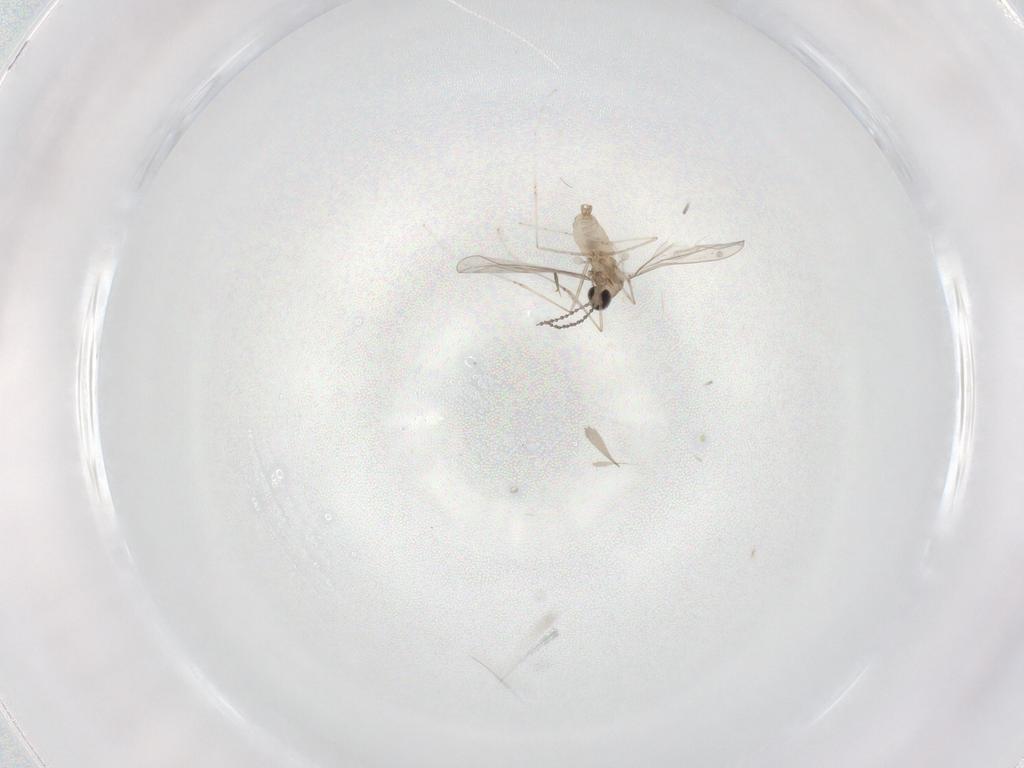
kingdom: Animalia
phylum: Arthropoda
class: Insecta
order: Diptera
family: Cecidomyiidae
